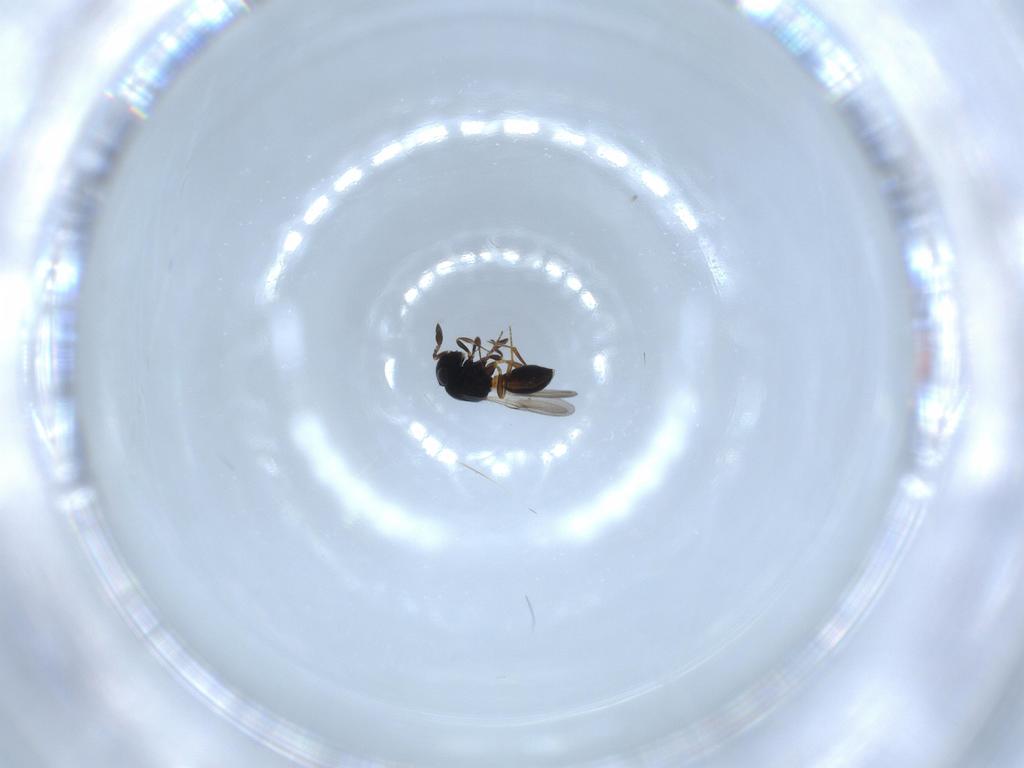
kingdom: Animalia
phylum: Arthropoda
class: Insecta
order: Hymenoptera
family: Scelionidae
